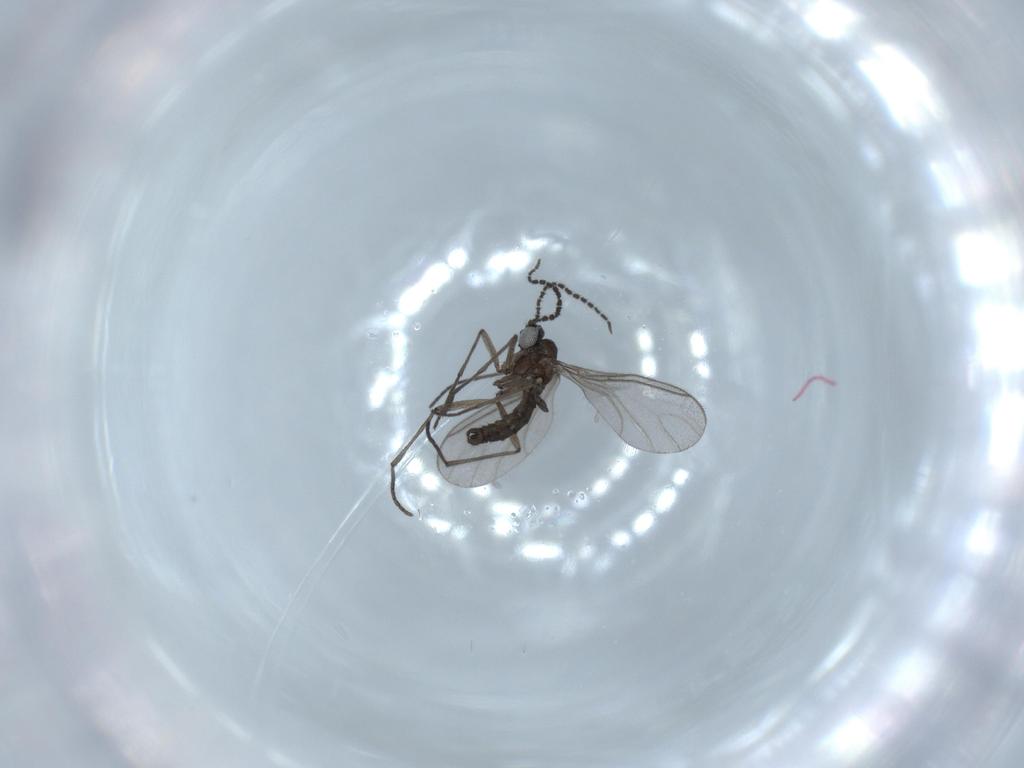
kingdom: Animalia
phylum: Arthropoda
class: Insecta
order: Diptera
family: Sciaridae
